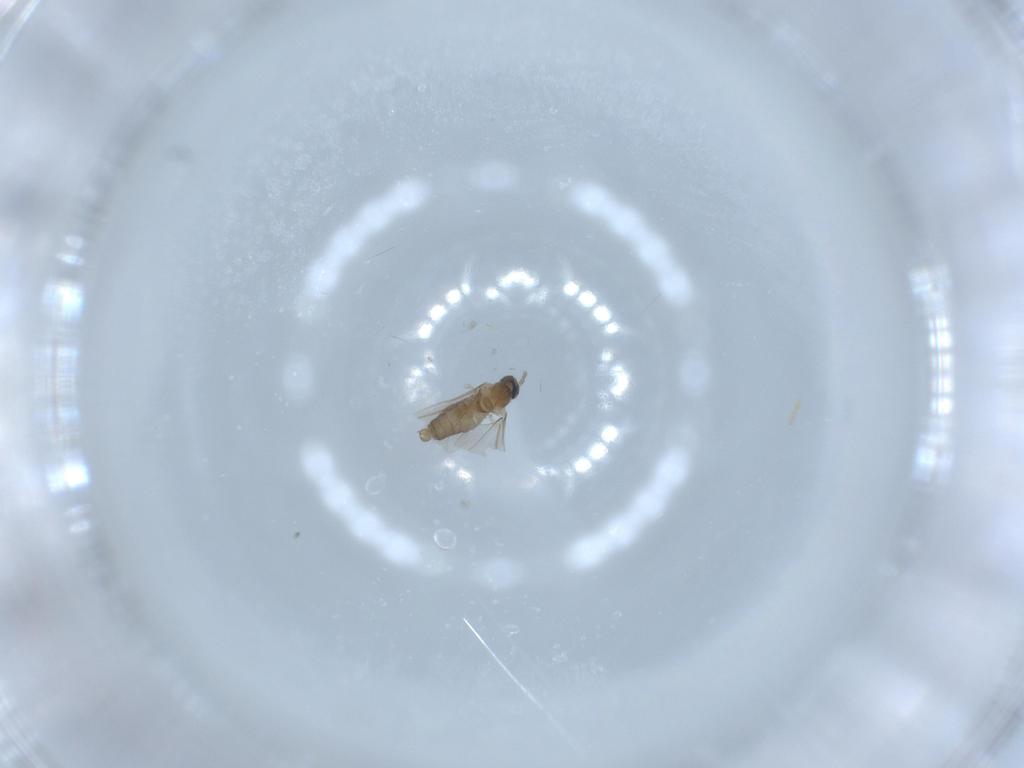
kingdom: Animalia
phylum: Arthropoda
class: Insecta
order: Diptera
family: Cecidomyiidae
